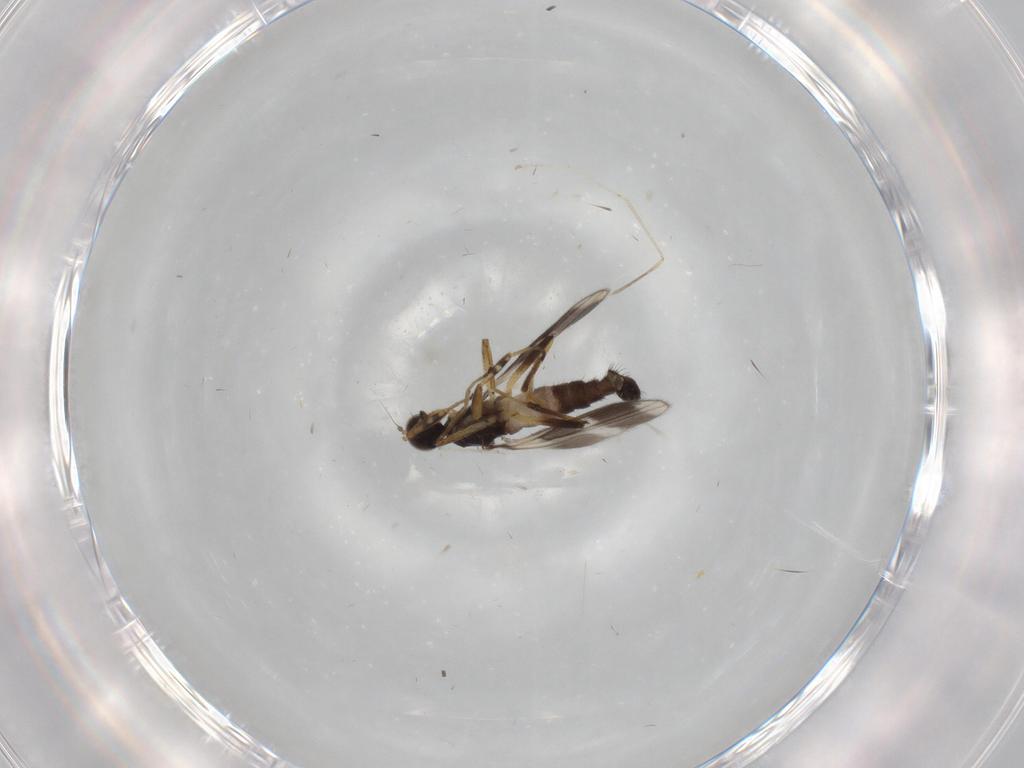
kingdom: Animalia
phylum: Arthropoda
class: Insecta
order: Diptera
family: Hybotidae
